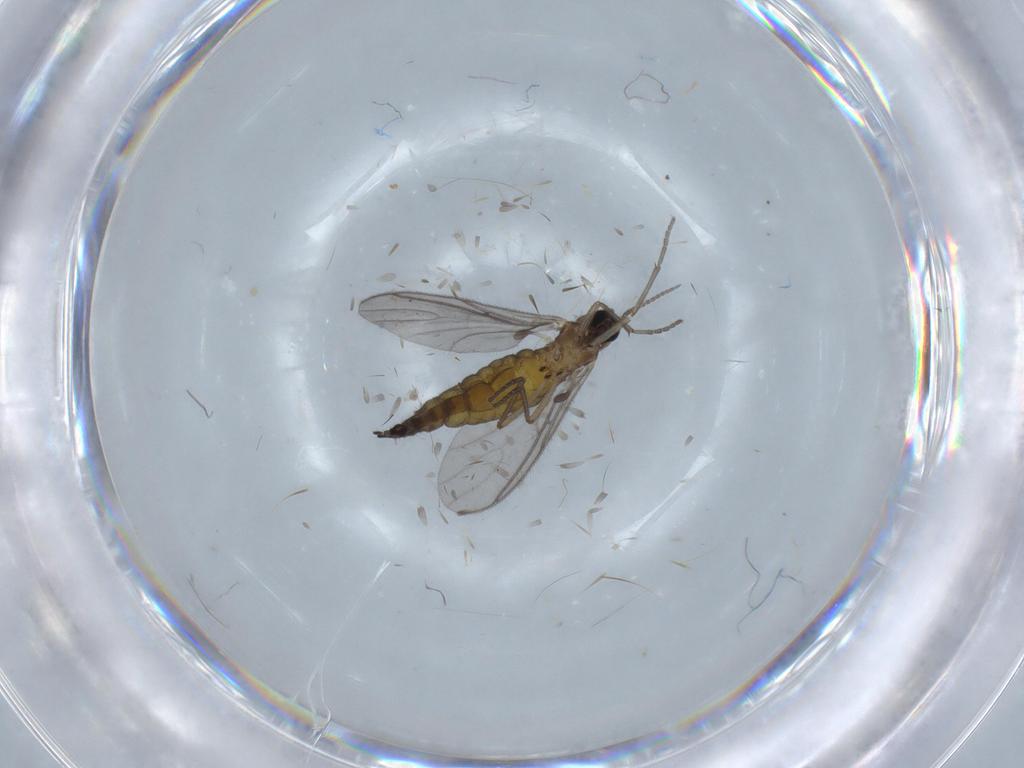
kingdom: Animalia
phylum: Arthropoda
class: Insecta
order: Diptera
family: Sciaridae
